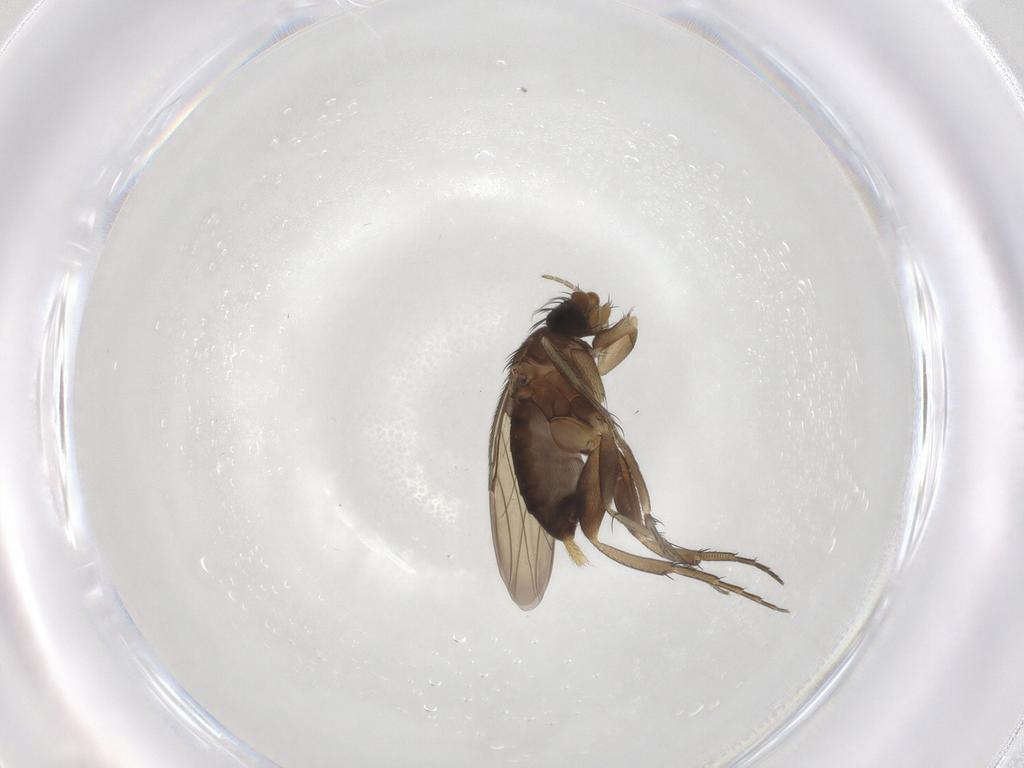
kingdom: Animalia
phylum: Arthropoda
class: Insecta
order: Diptera
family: Phoridae
